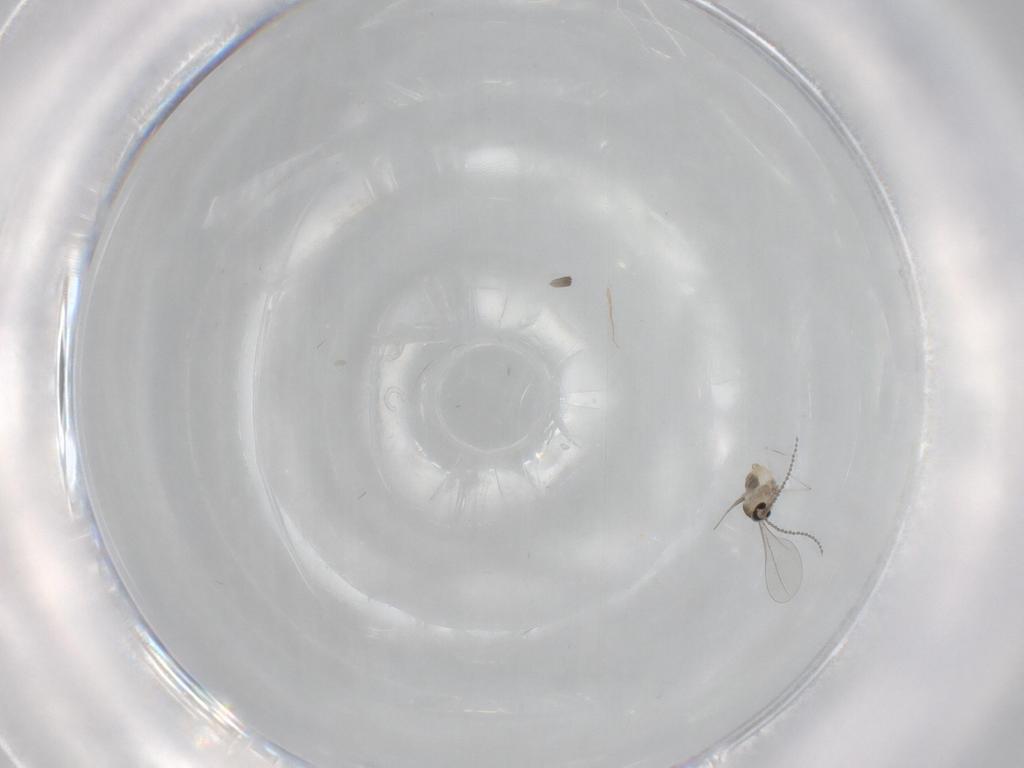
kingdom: Animalia
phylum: Arthropoda
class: Insecta
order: Diptera
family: Cecidomyiidae
